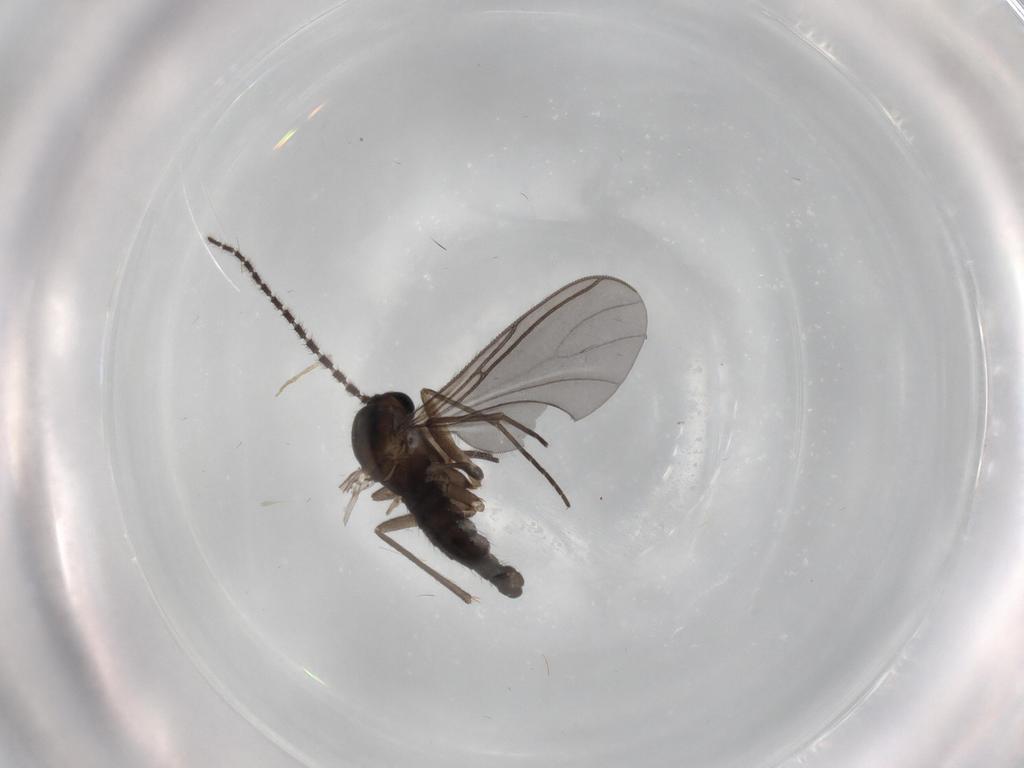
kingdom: Animalia
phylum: Arthropoda
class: Insecta
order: Diptera
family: Sciaridae
